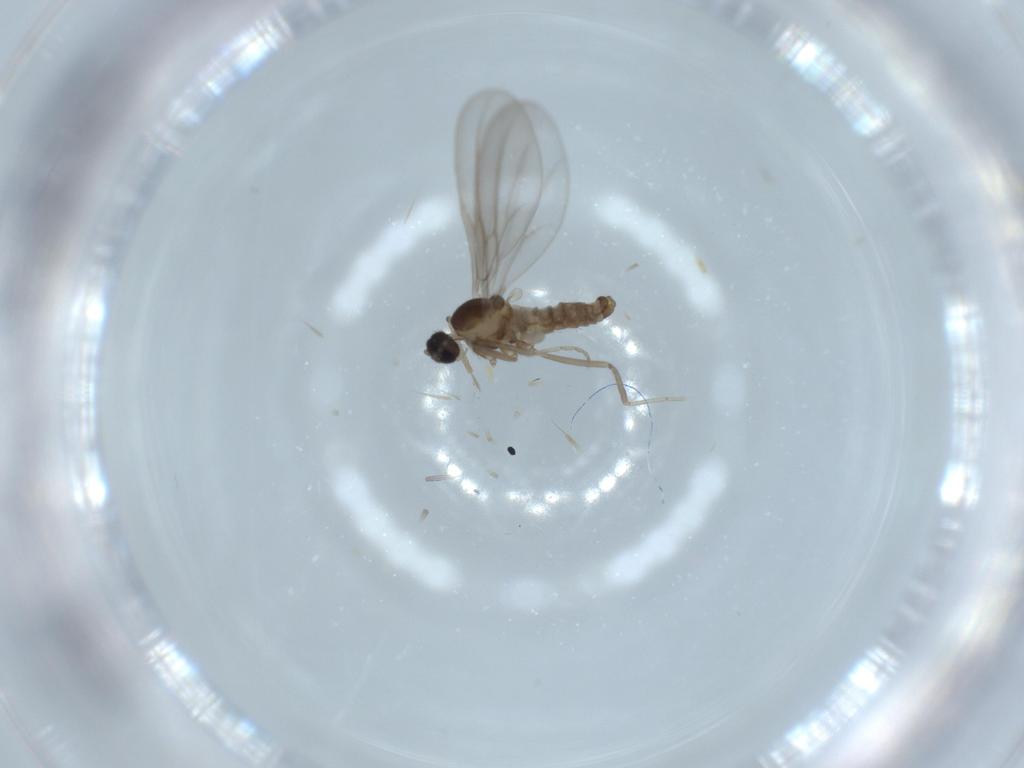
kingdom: Animalia
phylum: Arthropoda
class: Insecta
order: Diptera
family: Cecidomyiidae
